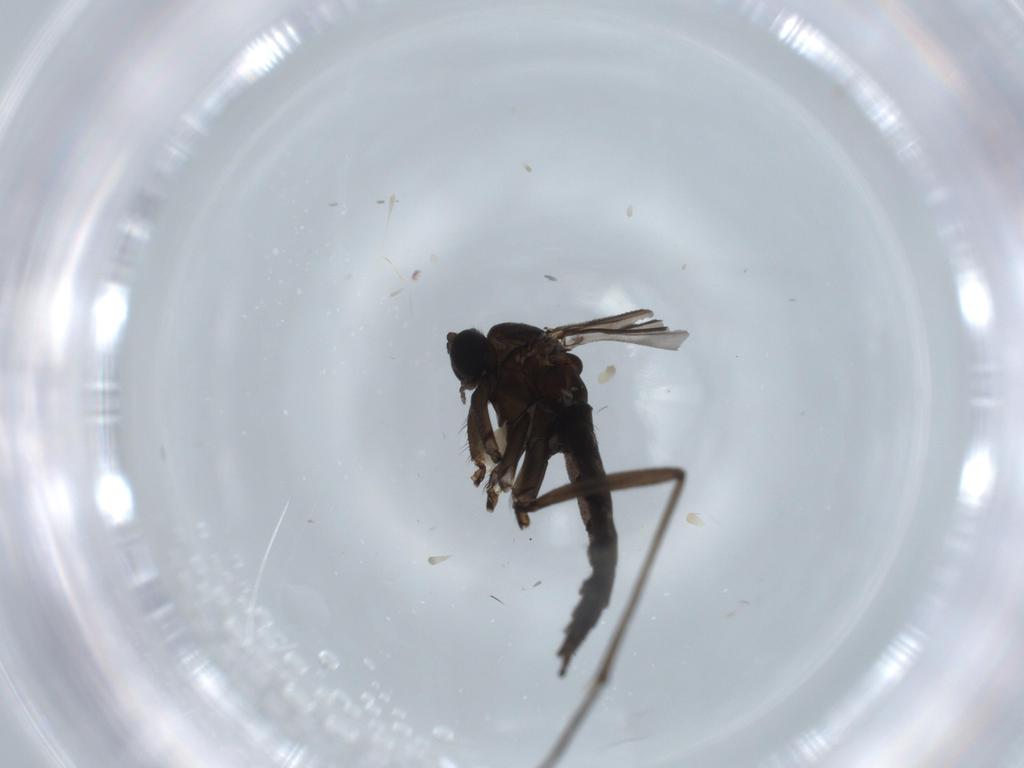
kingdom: Animalia
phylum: Arthropoda
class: Insecta
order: Diptera
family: Sciaridae
